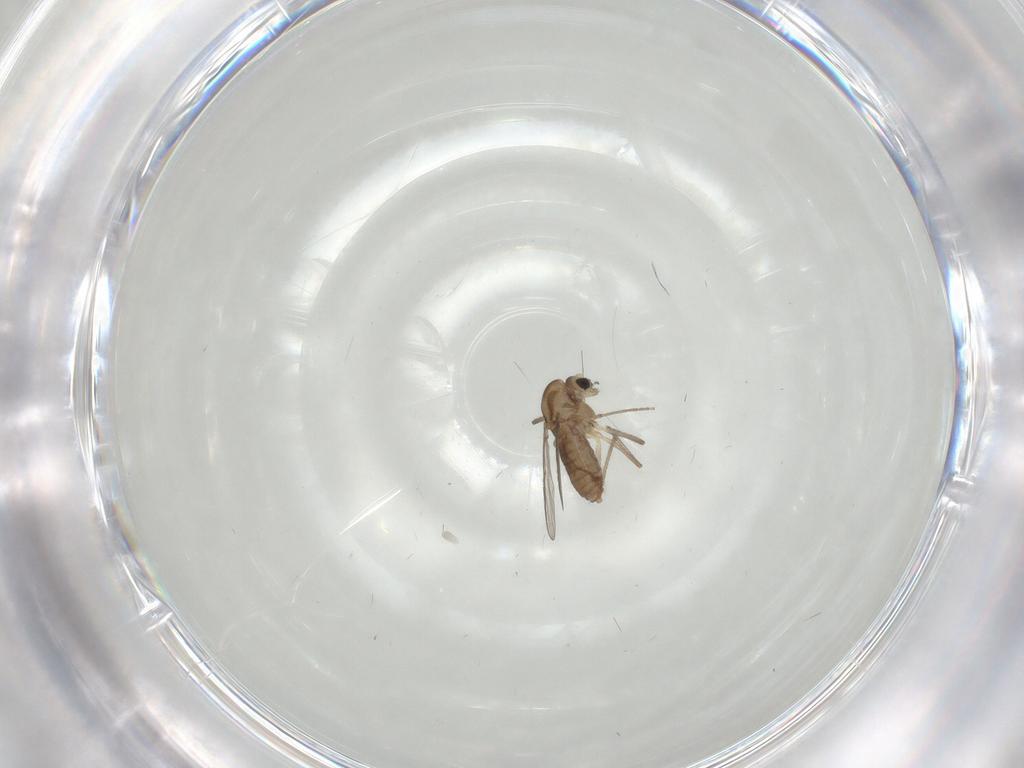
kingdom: Animalia
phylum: Arthropoda
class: Insecta
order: Diptera
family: Chironomidae
